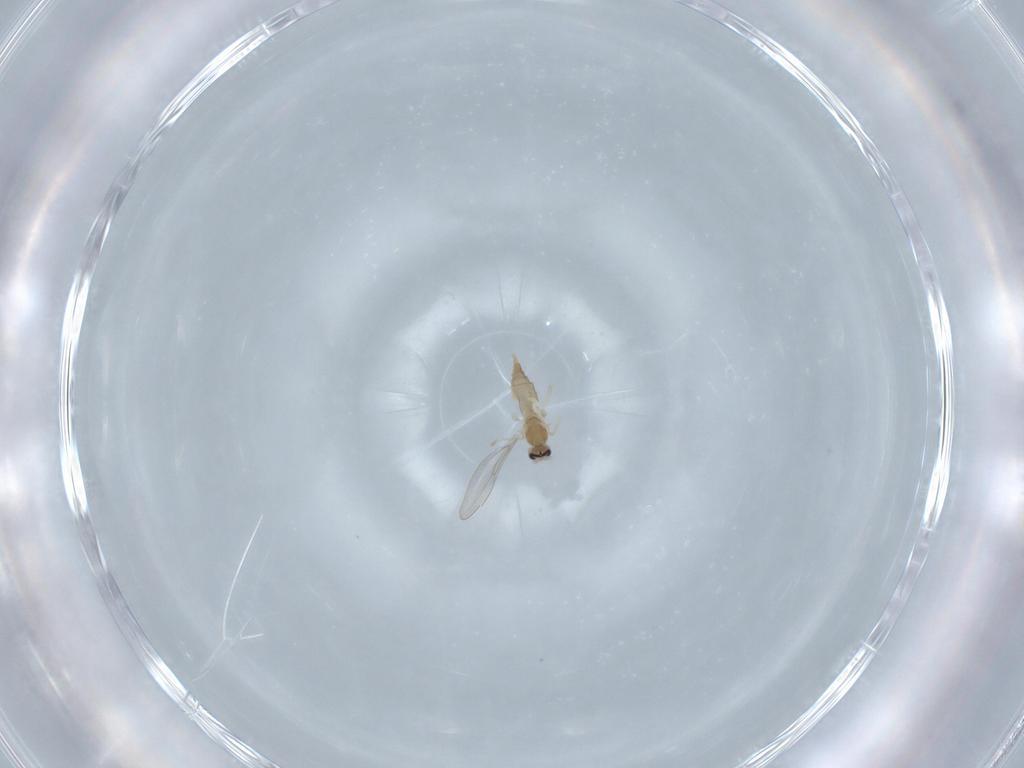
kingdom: Animalia
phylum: Arthropoda
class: Insecta
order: Diptera
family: Cecidomyiidae
